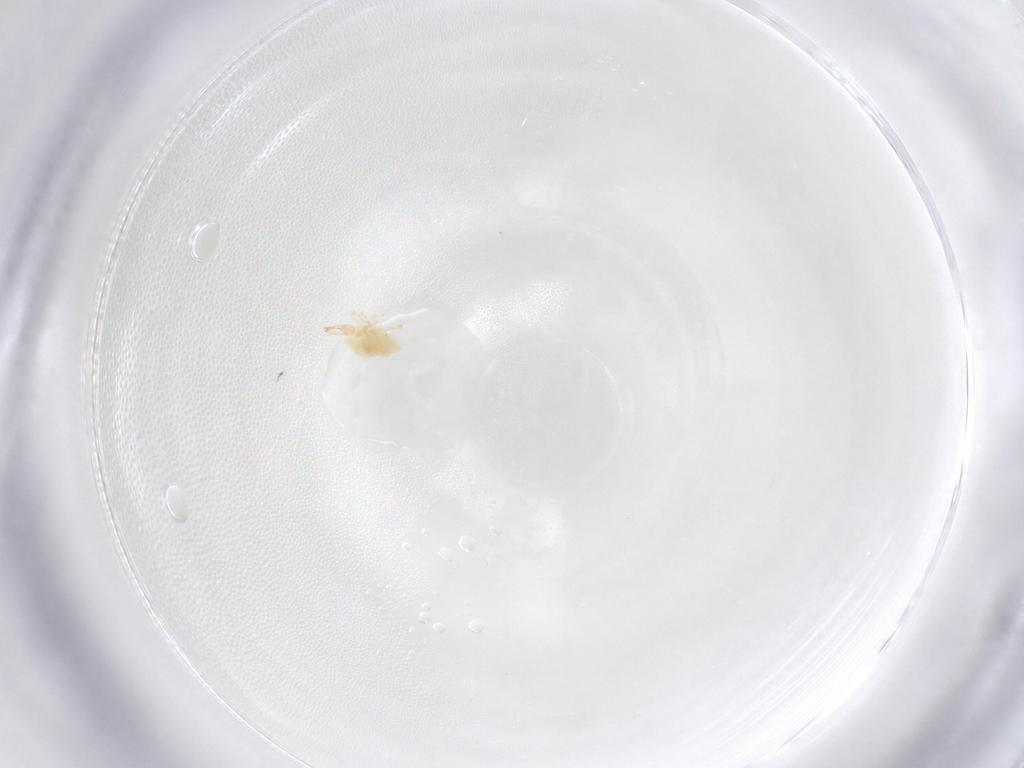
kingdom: Animalia
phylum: Arthropoda
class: Arachnida
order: Trombidiformes
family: Cunaxidae
